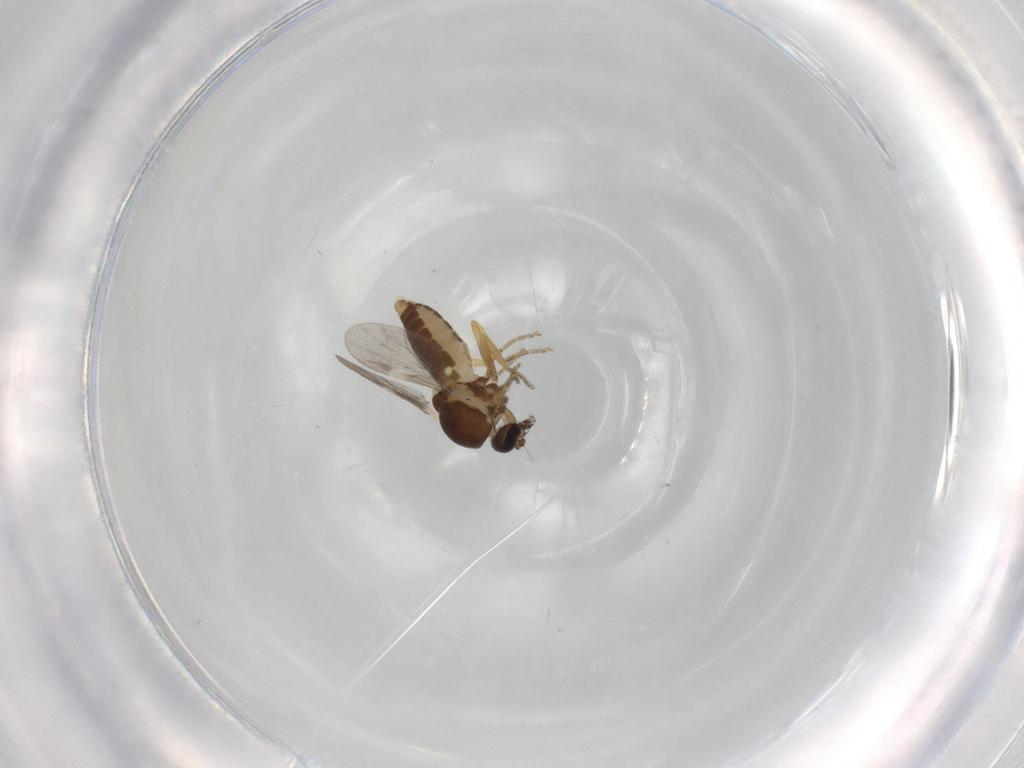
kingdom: Animalia
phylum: Arthropoda
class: Insecta
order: Diptera
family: Ceratopogonidae
